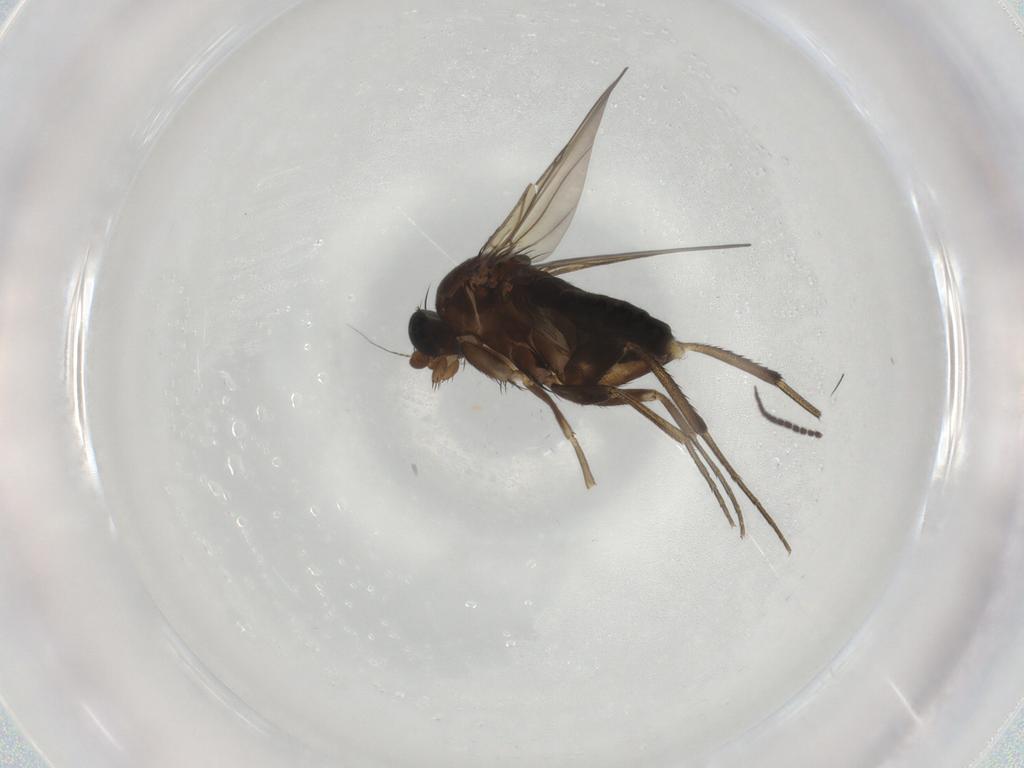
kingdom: Animalia
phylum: Arthropoda
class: Insecta
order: Diptera
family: Phoridae
